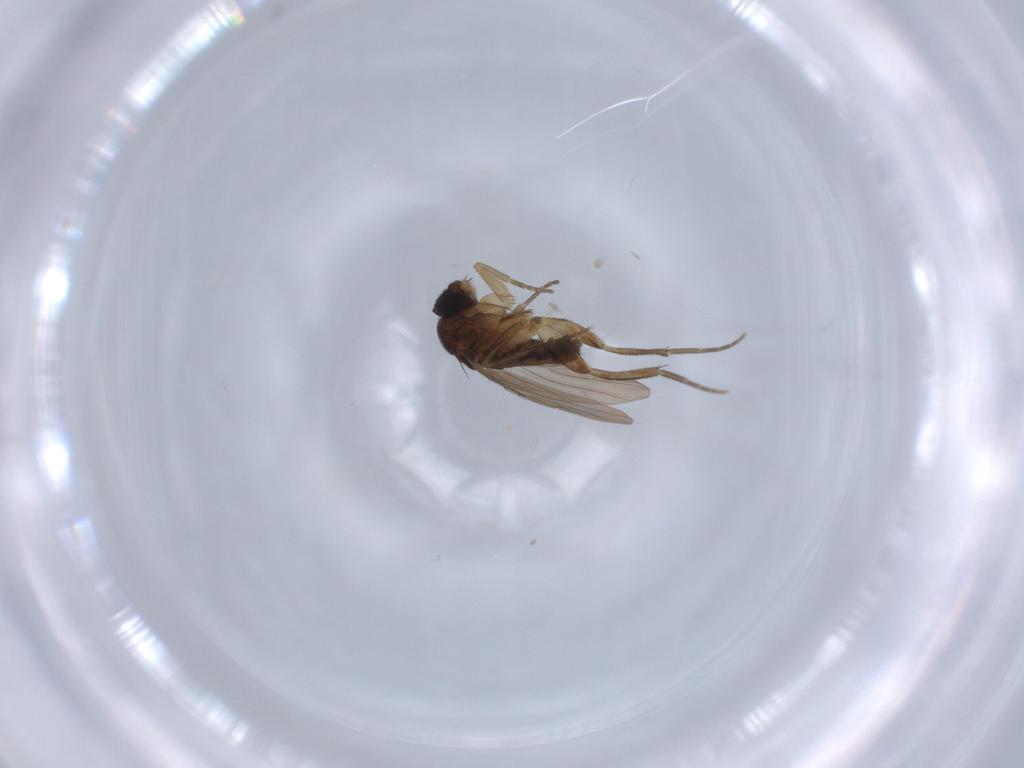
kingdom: Animalia
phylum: Arthropoda
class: Insecta
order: Diptera
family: Phoridae
